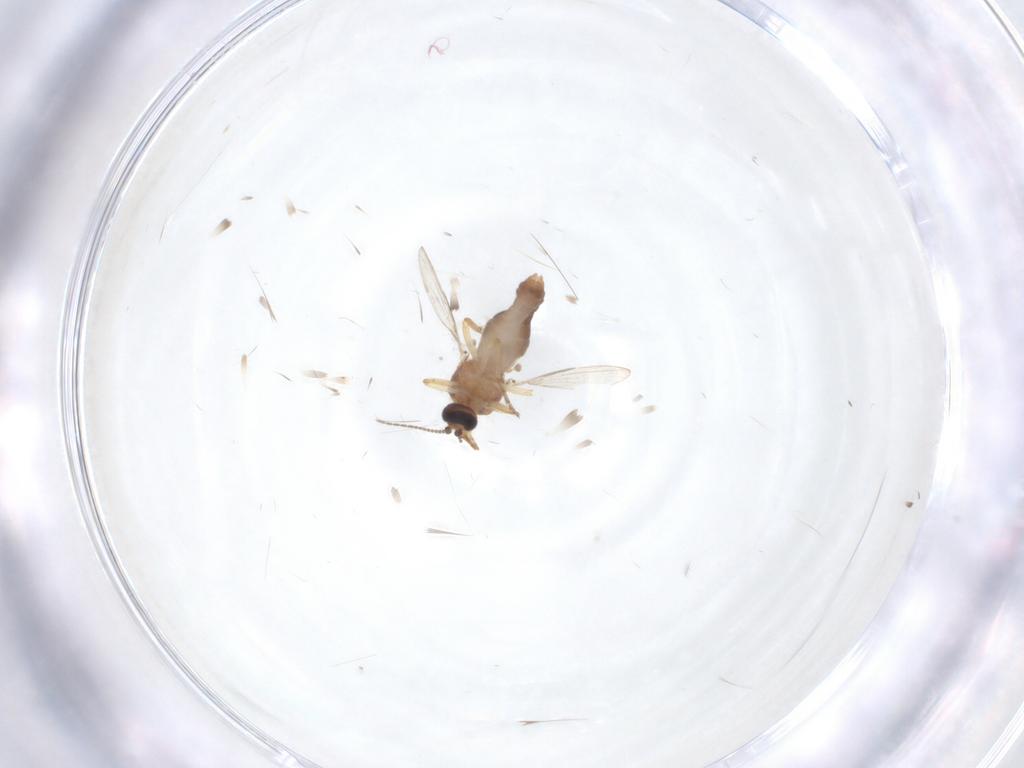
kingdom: Animalia
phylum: Arthropoda
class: Insecta
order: Diptera
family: Ceratopogonidae
